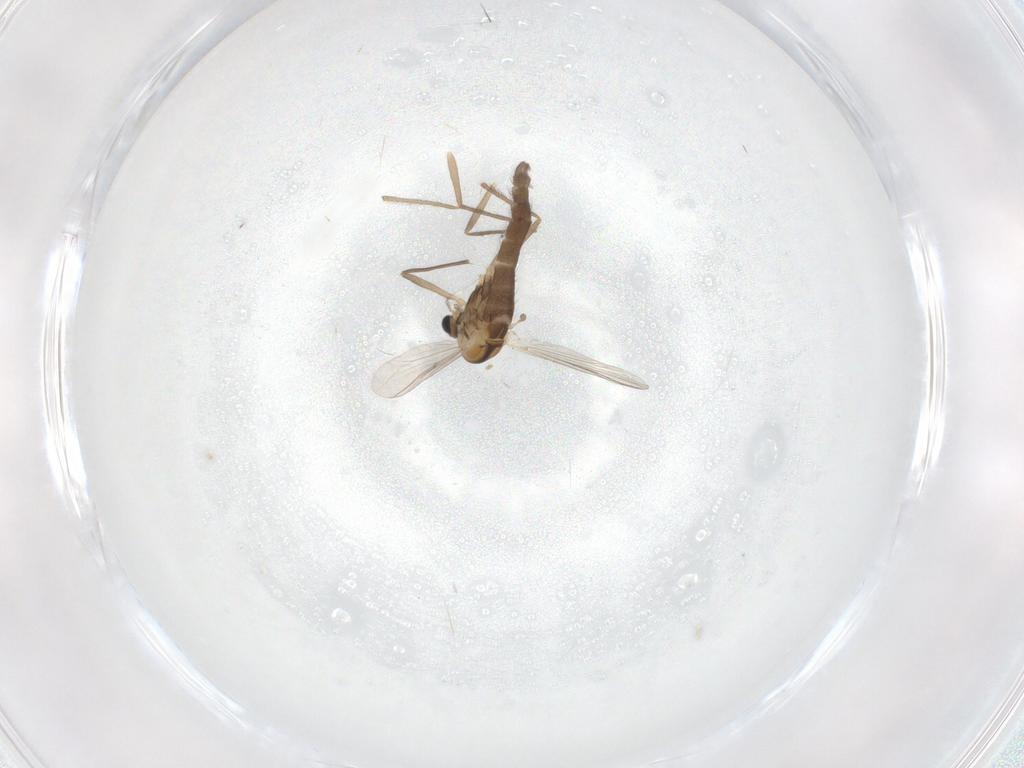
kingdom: Animalia
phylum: Arthropoda
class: Insecta
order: Diptera
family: Chironomidae
